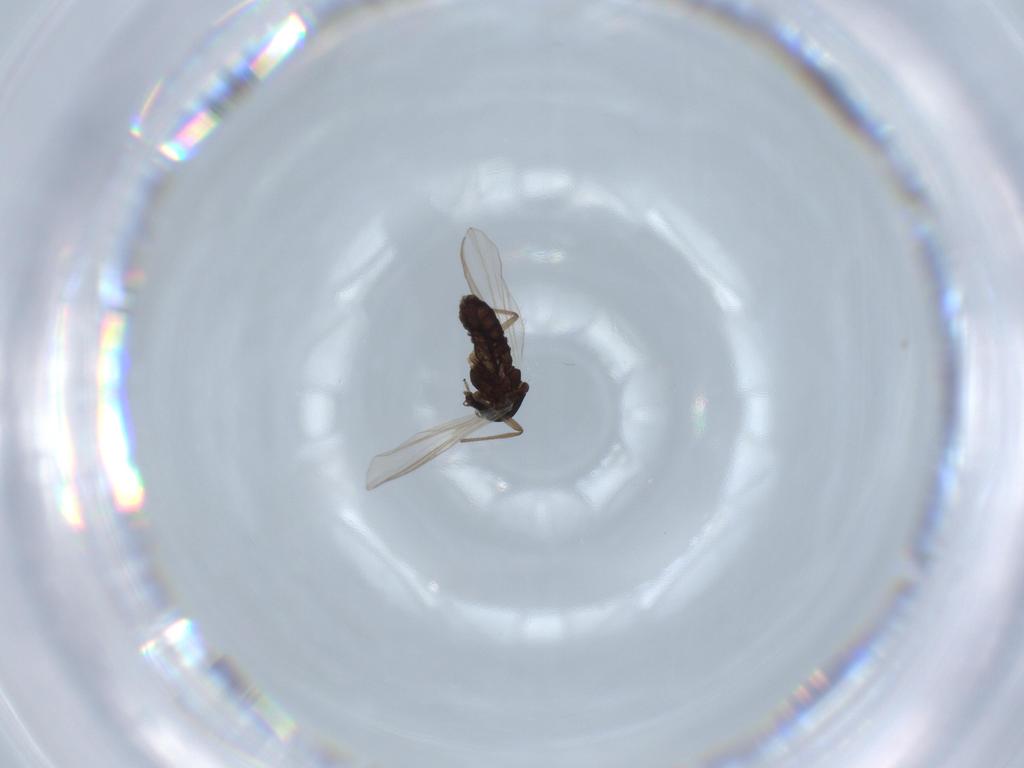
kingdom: Animalia
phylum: Arthropoda
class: Insecta
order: Diptera
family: Chironomidae
